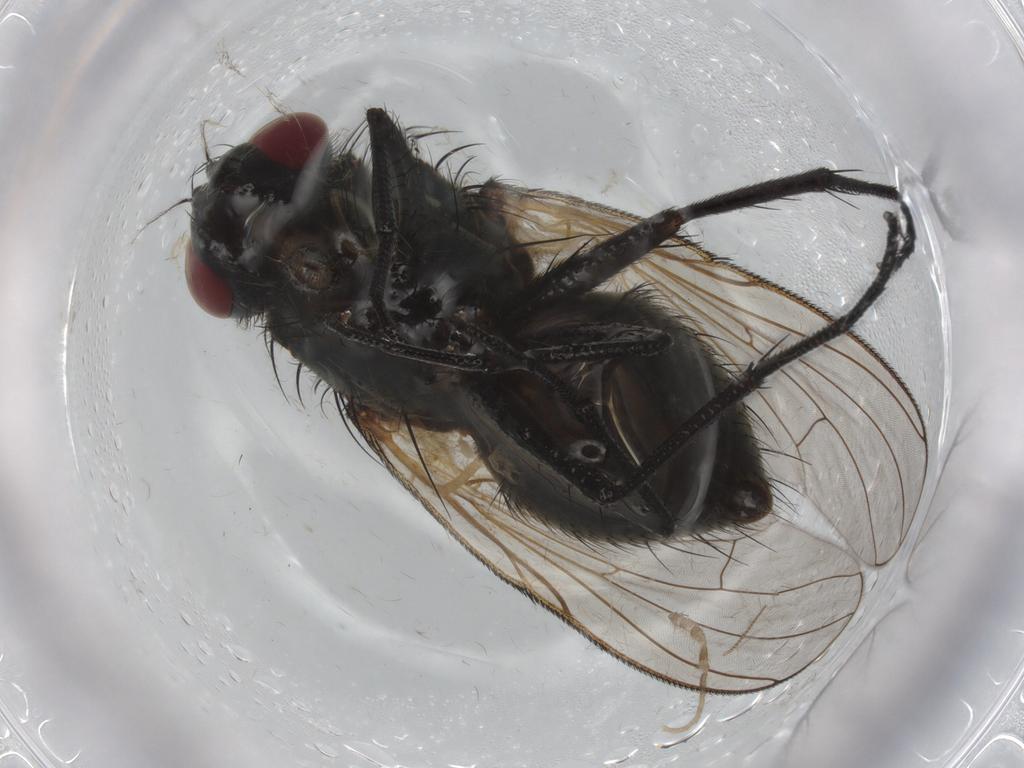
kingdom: Animalia
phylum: Arthropoda
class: Insecta
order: Diptera
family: Muscidae
